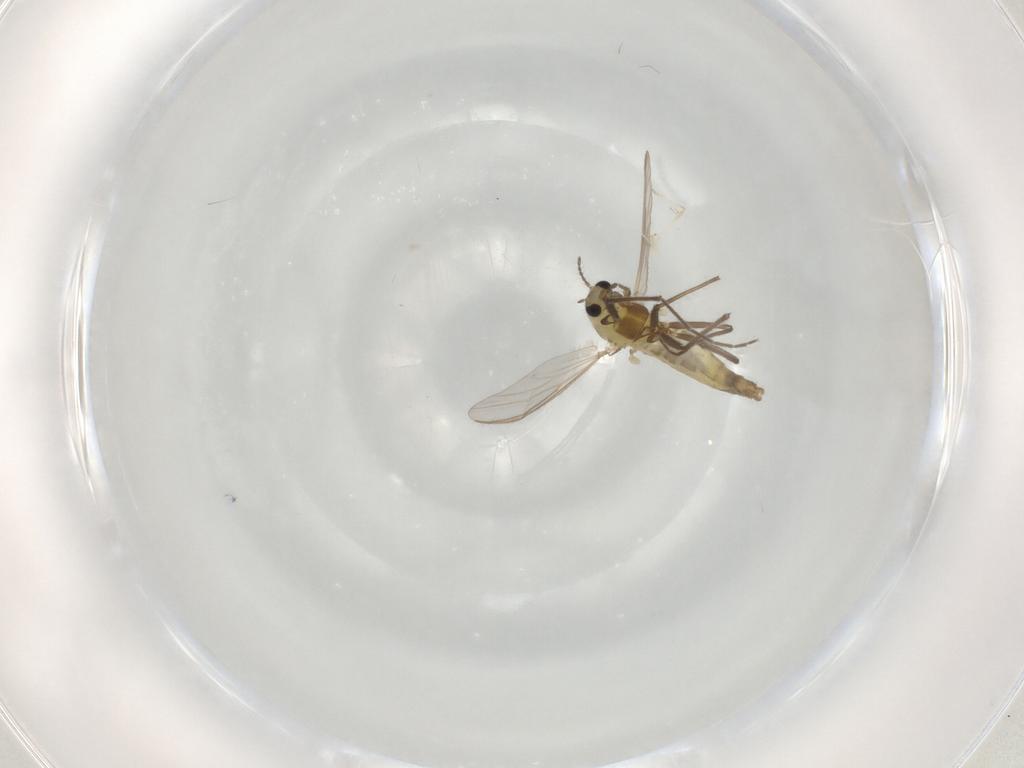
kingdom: Animalia
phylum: Arthropoda
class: Insecta
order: Diptera
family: Chironomidae
